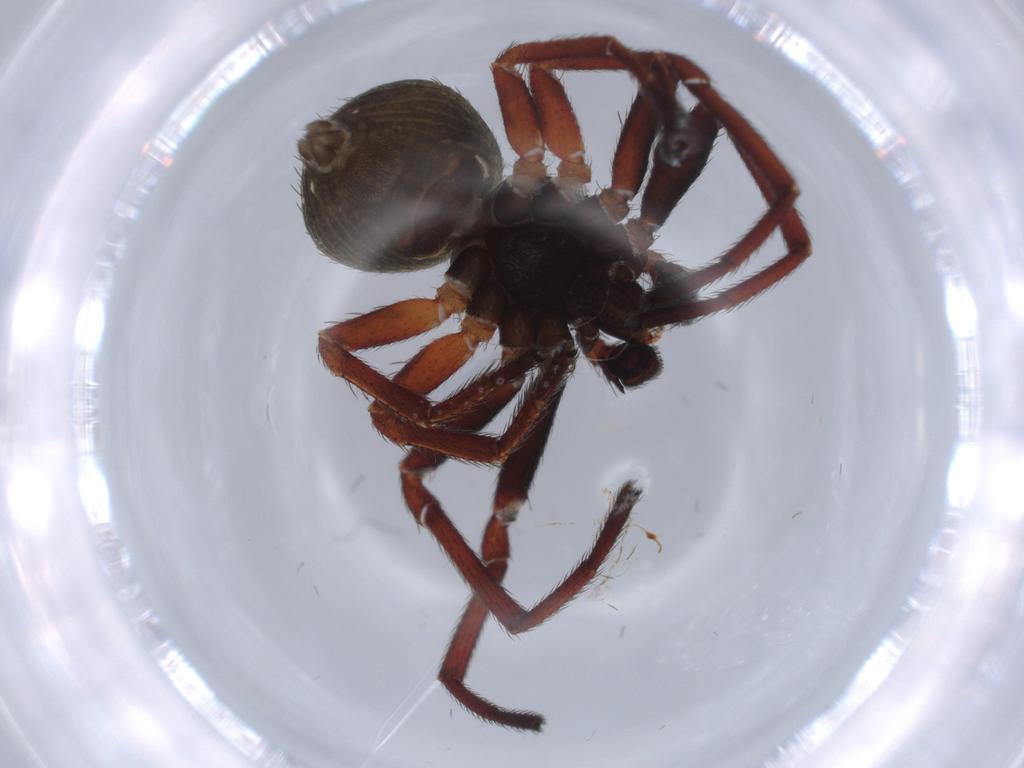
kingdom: Animalia
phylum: Arthropoda
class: Arachnida
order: Araneae
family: Thomisidae
